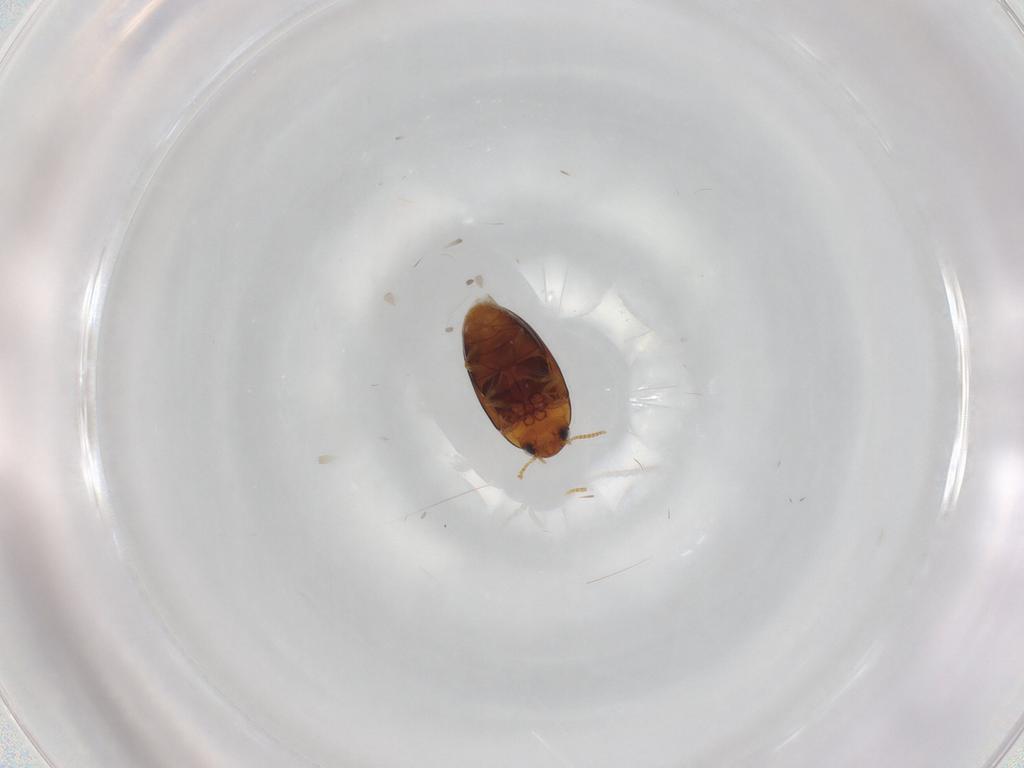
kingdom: Animalia
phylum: Arthropoda
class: Insecta
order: Coleoptera
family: Noteridae
